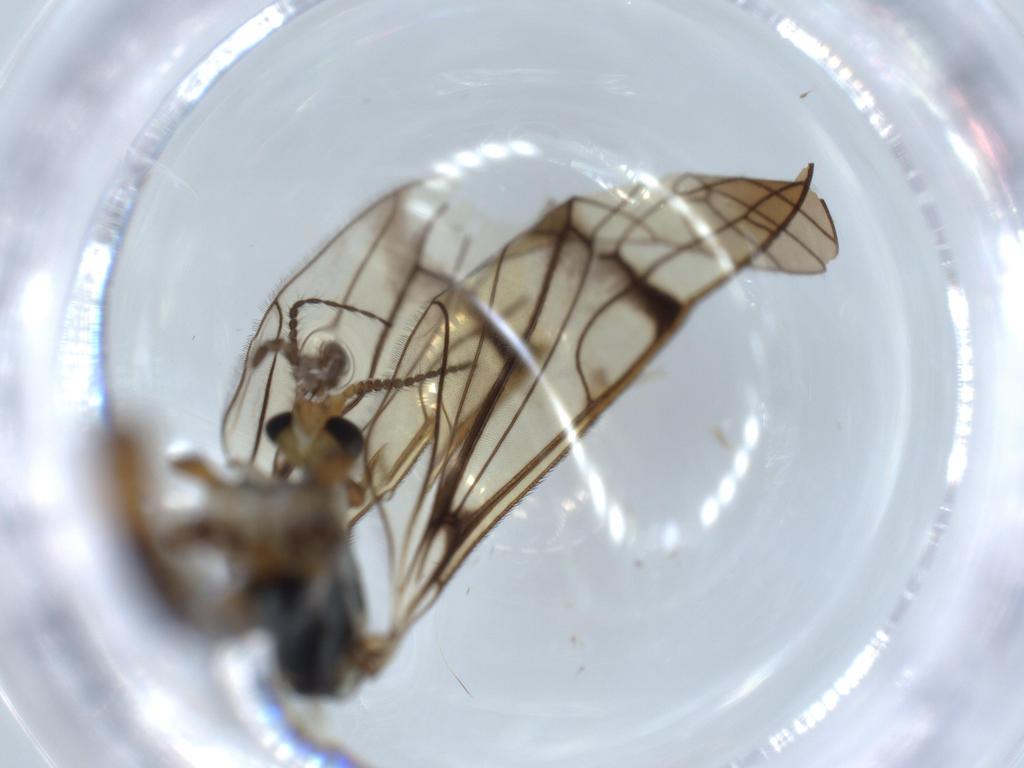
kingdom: Animalia
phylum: Arthropoda
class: Insecta
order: Diptera
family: Limoniidae
